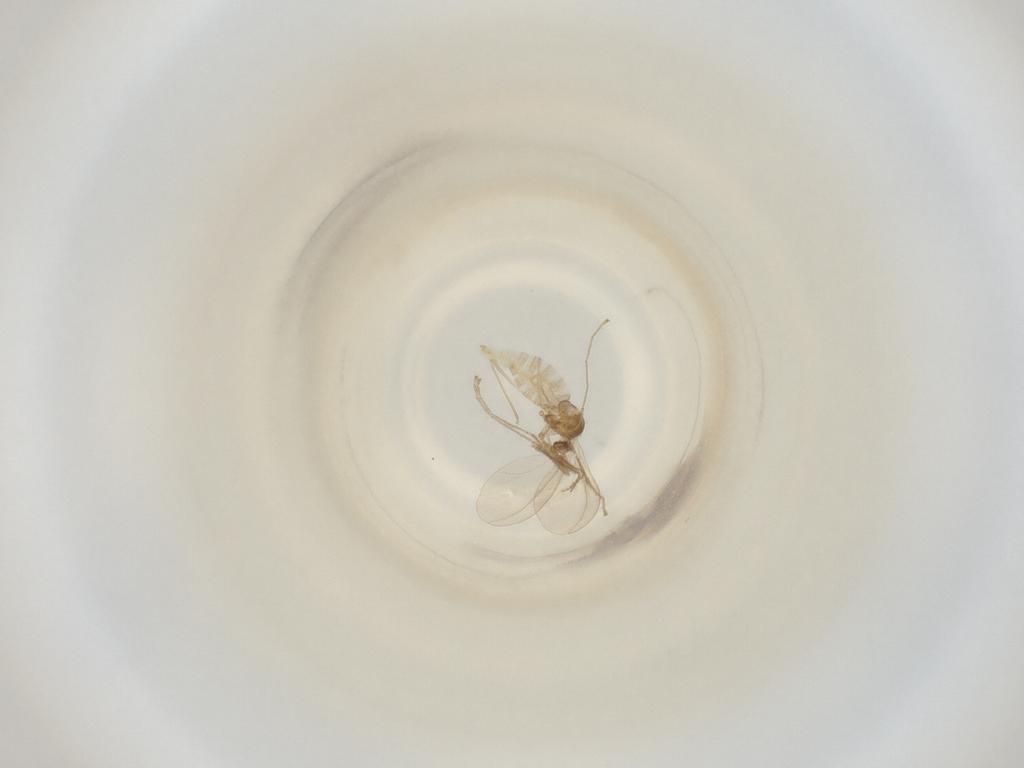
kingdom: Animalia
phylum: Arthropoda
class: Insecta
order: Diptera
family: Cecidomyiidae
